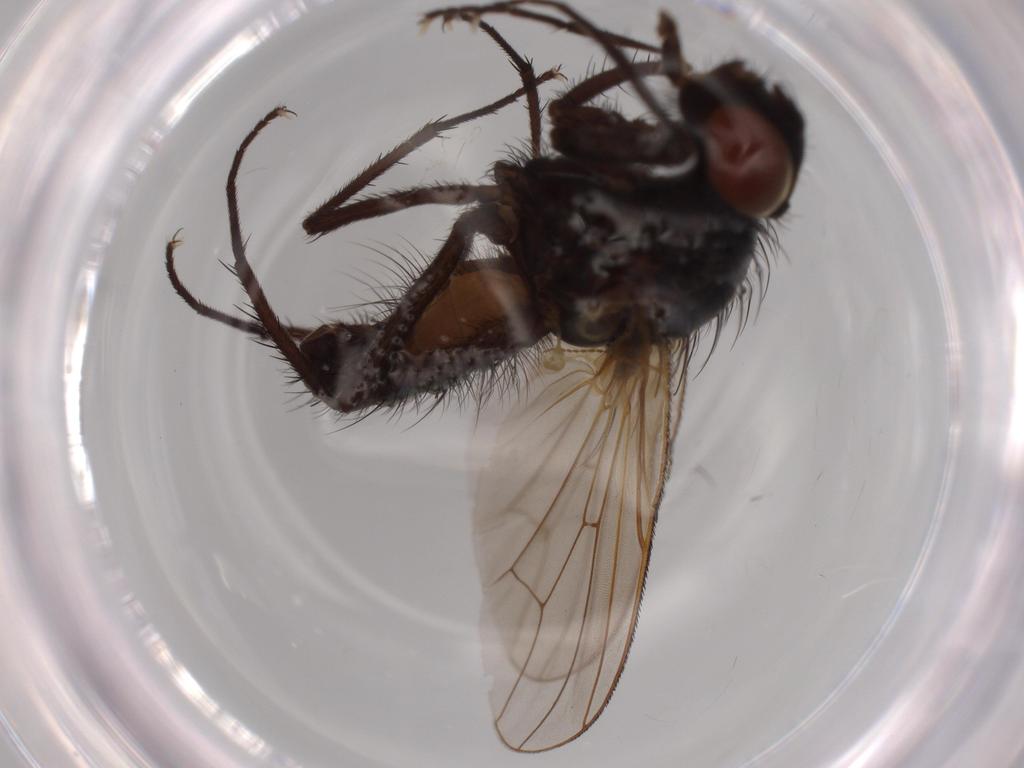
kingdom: Animalia
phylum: Arthropoda
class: Insecta
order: Diptera
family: Anthomyiidae
